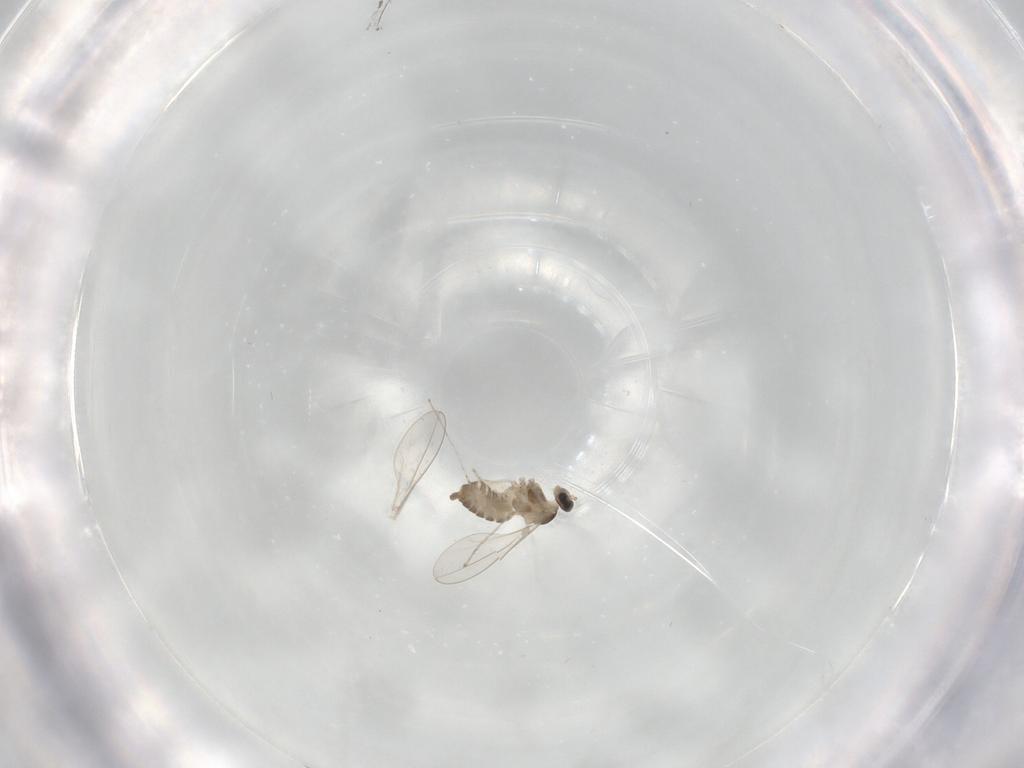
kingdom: Animalia
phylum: Arthropoda
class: Insecta
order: Diptera
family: Cecidomyiidae
